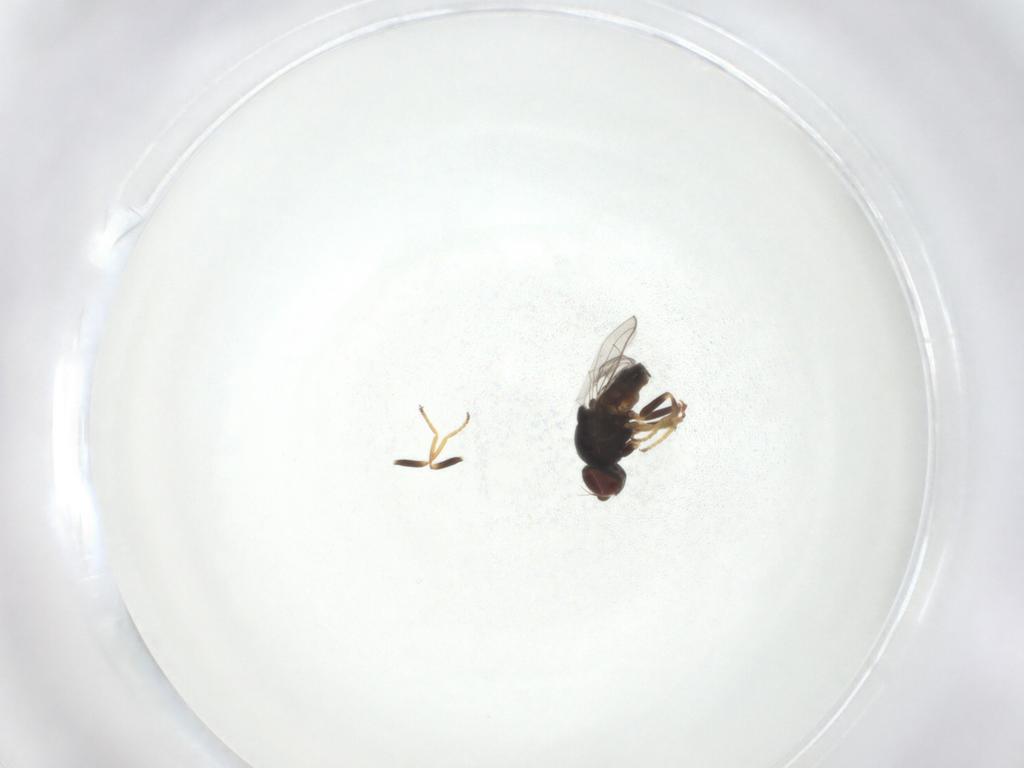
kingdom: Animalia
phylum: Arthropoda
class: Insecta
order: Diptera
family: Chloropidae
